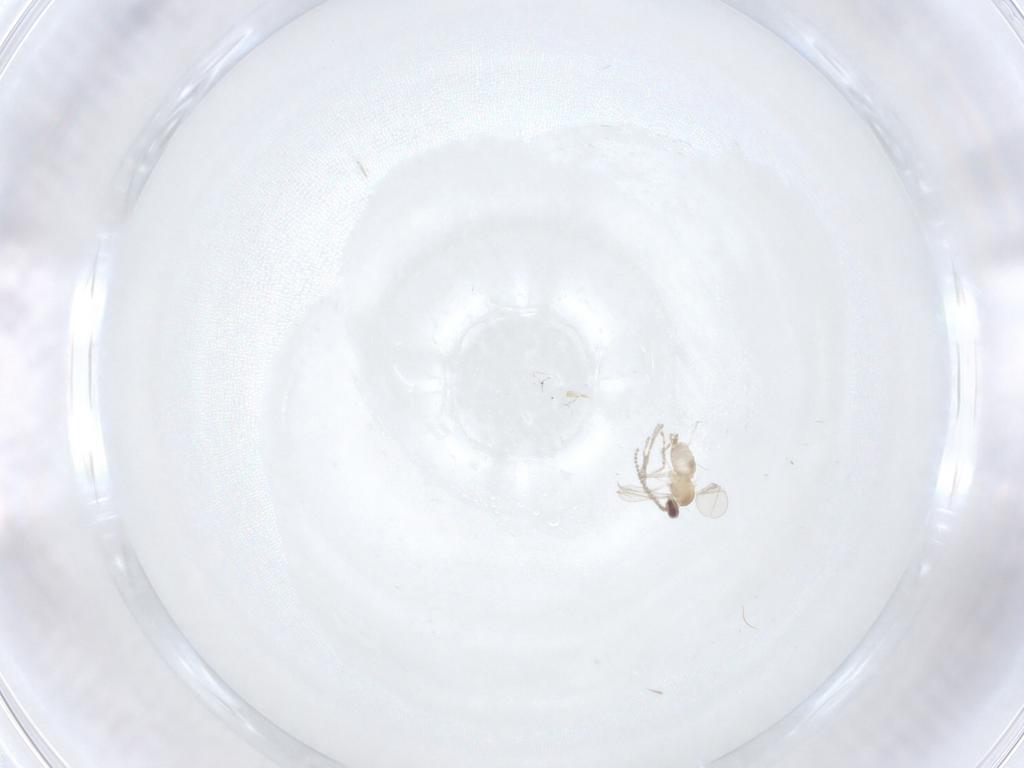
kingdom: Animalia
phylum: Arthropoda
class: Insecta
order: Diptera
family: Cecidomyiidae
